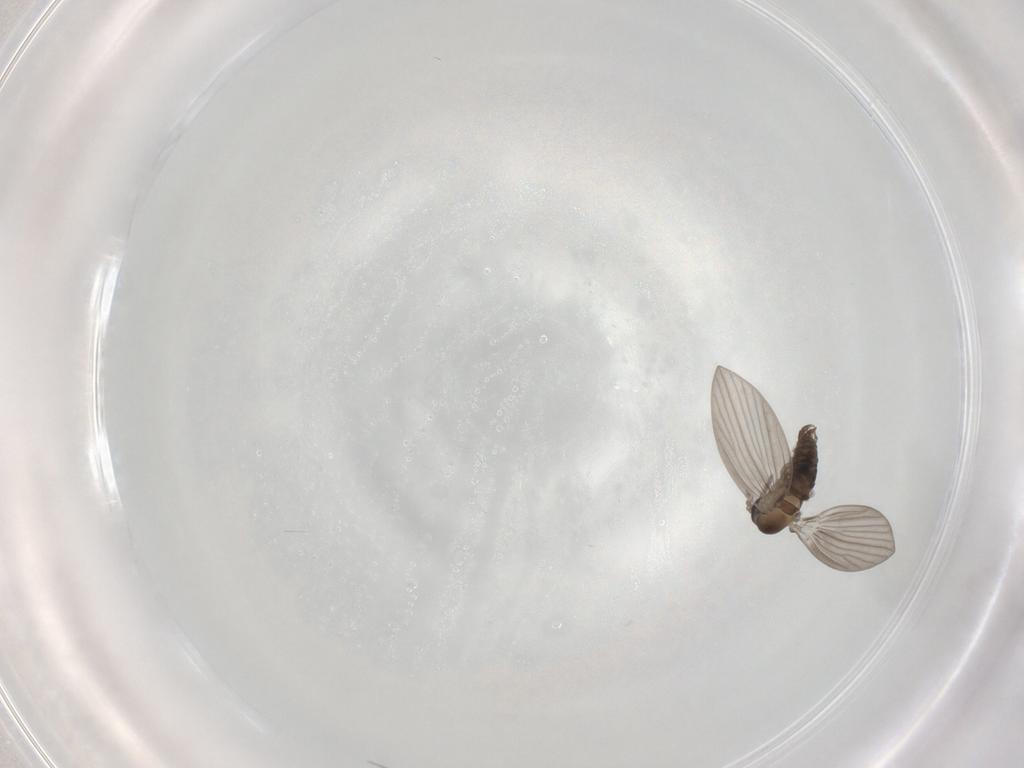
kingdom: Animalia
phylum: Arthropoda
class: Insecta
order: Diptera
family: Cecidomyiidae
